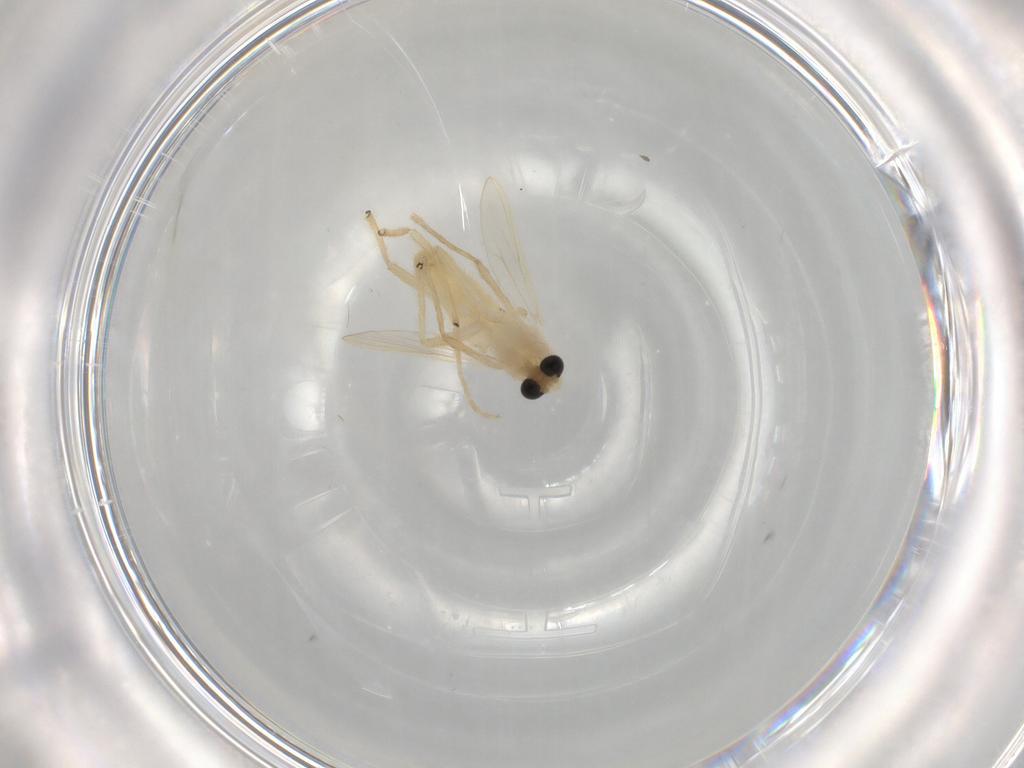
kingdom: Animalia
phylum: Arthropoda
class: Insecta
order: Diptera
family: Chironomidae
